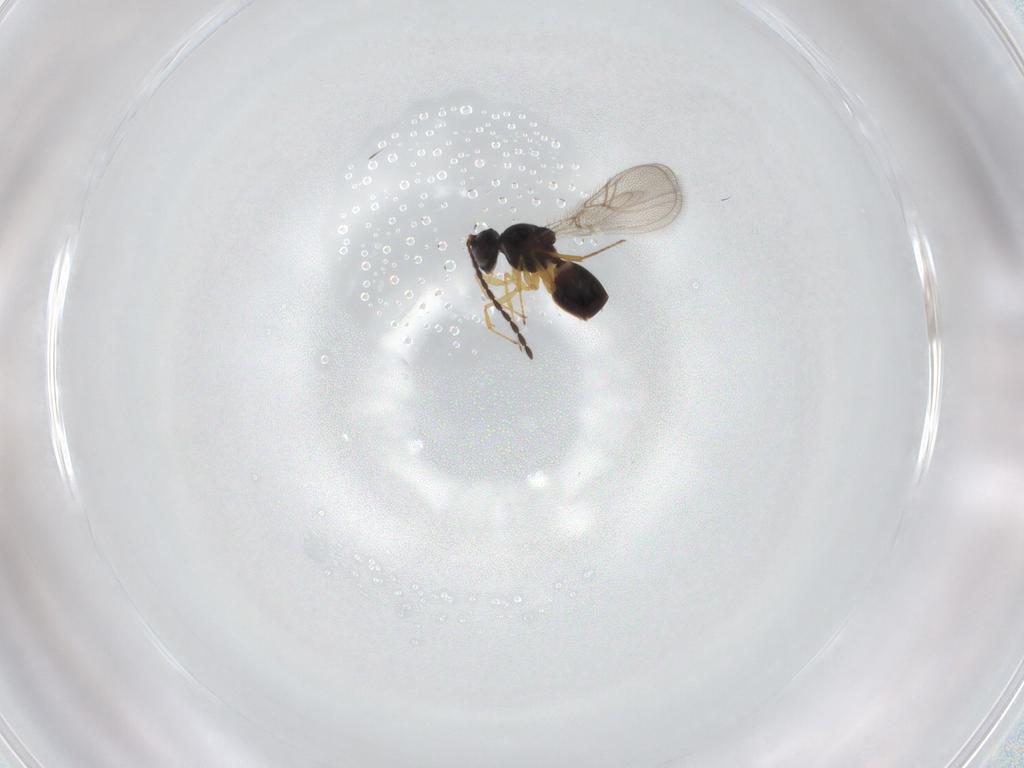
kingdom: Animalia
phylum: Arthropoda
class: Insecta
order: Hymenoptera
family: Figitidae
